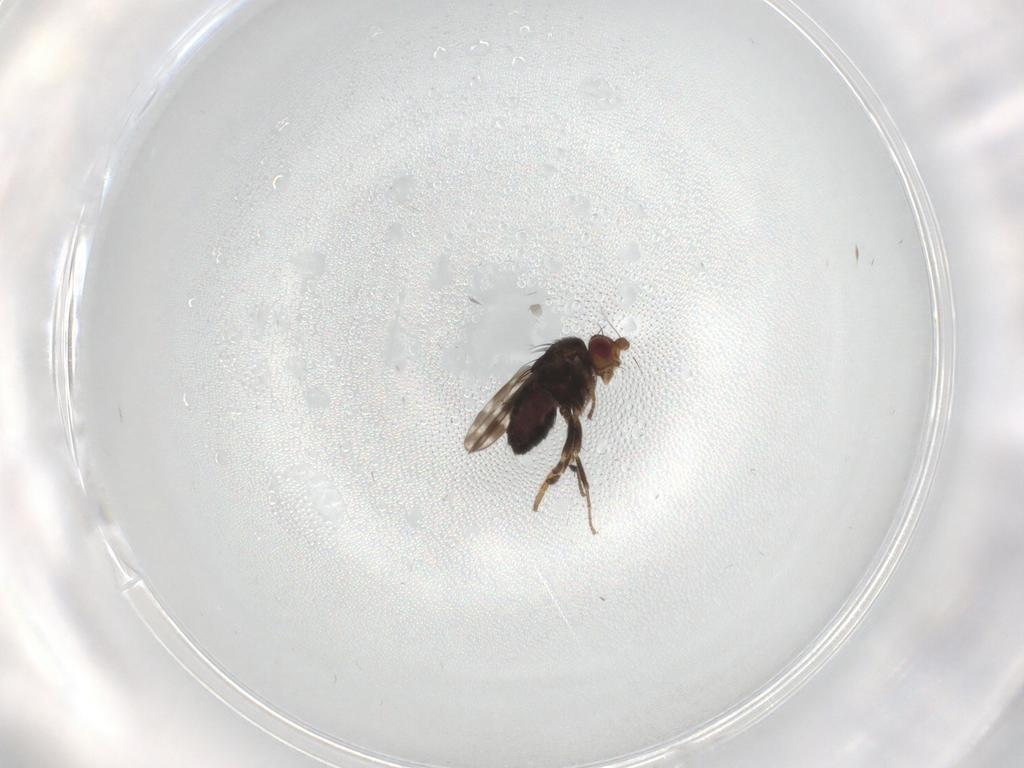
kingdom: Animalia
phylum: Arthropoda
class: Insecta
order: Diptera
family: Sphaeroceridae
